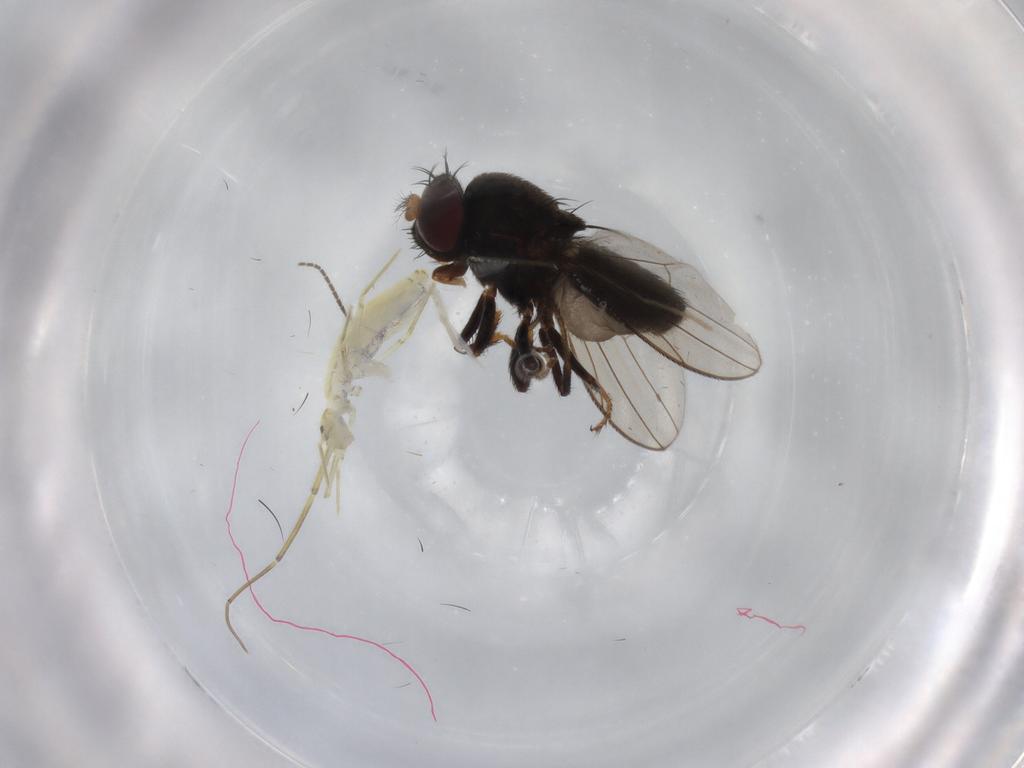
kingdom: Animalia
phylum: Arthropoda
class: Insecta
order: Diptera
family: Sciaridae
